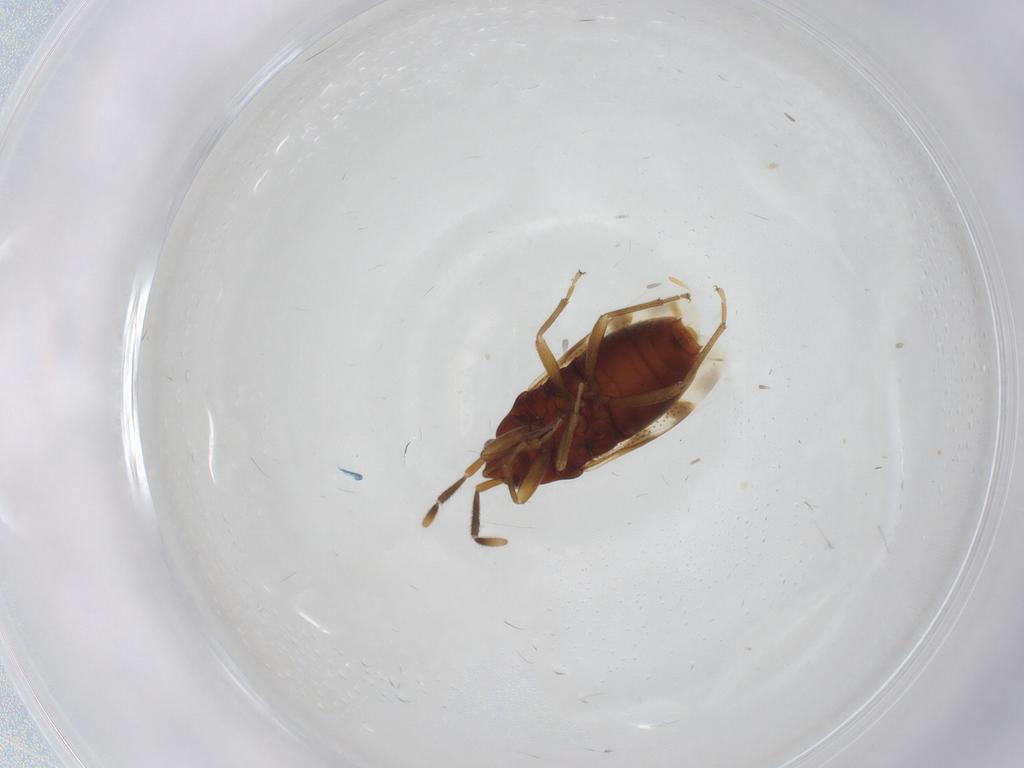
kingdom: Animalia
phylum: Arthropoda
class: Insecta
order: Hemiptera
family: Rhyparochromidae
